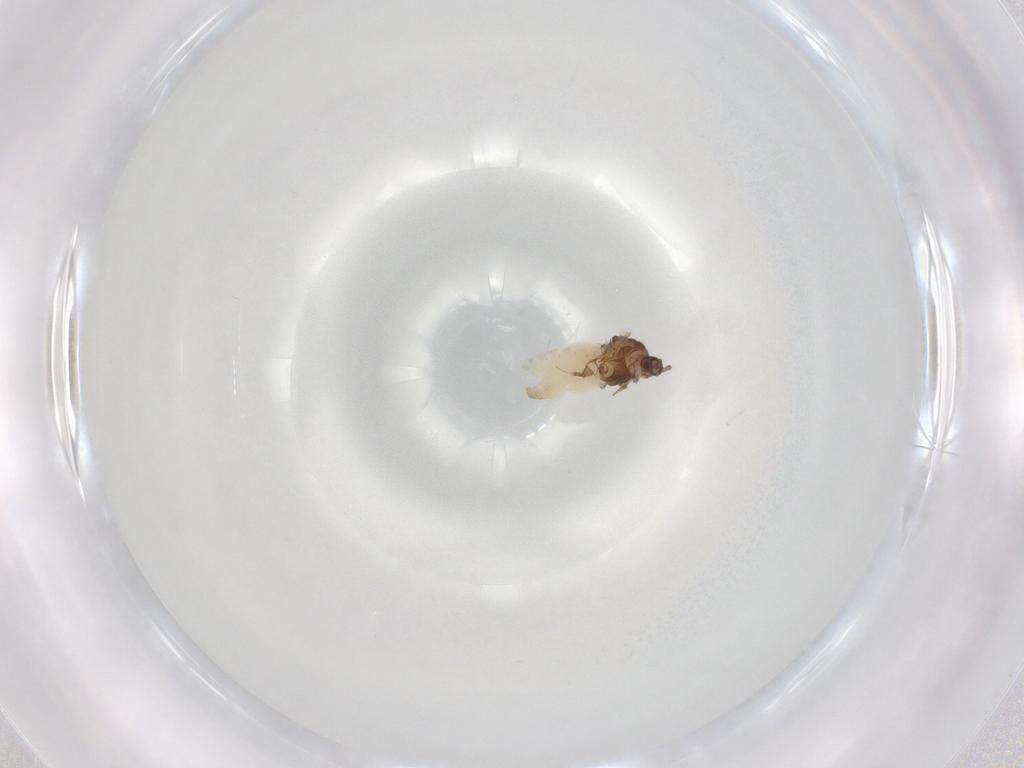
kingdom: Animalia
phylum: Arthropoda
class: Insecta
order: Hemiptera
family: Aphididae
